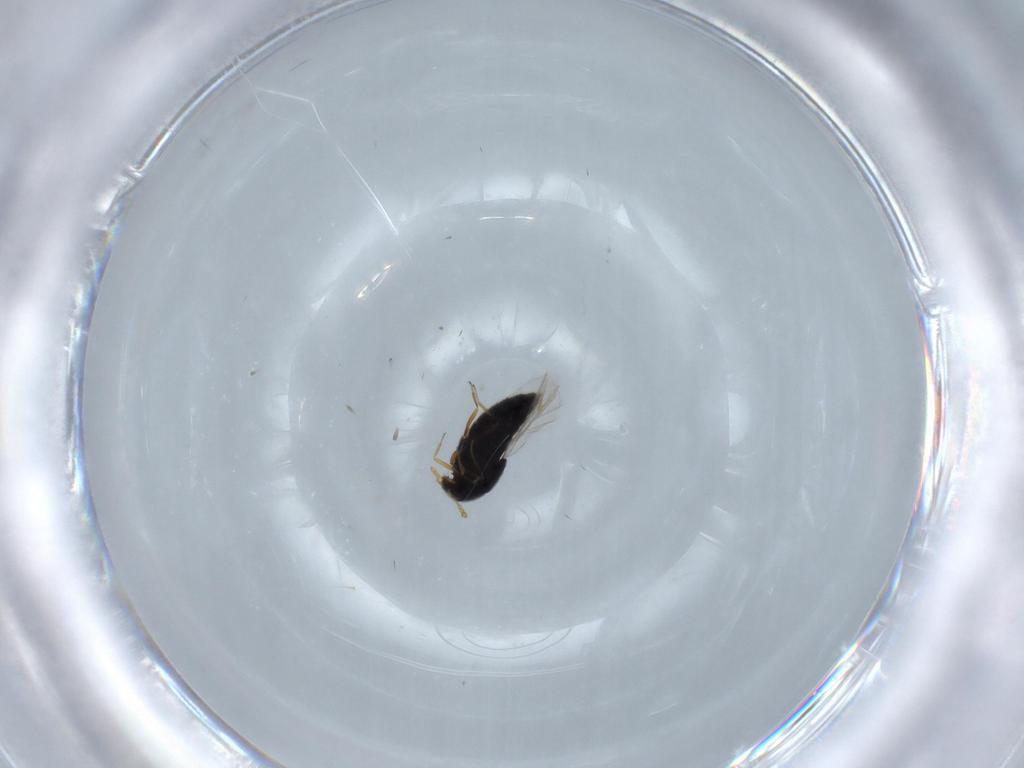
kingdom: Animalia
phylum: Arthropoda
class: Insecta
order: Coleoptera
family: Staphylinidae
